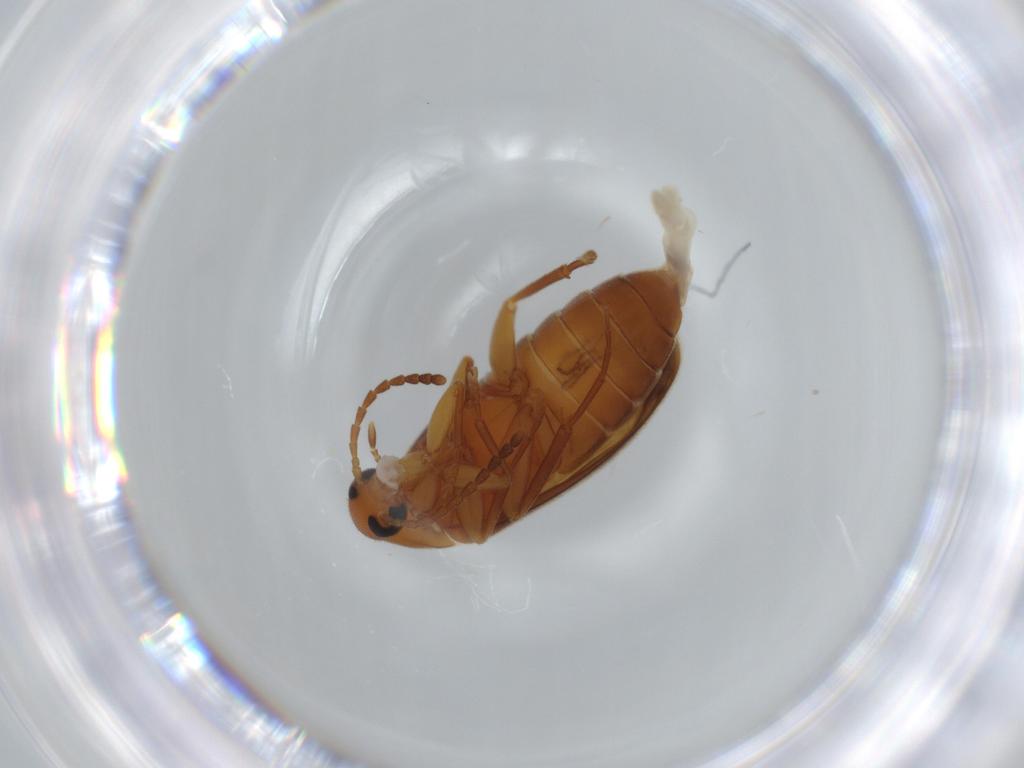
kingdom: Animalia
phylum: Arthropoda
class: Insecta
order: Coleoptera
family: Scraptiidae
